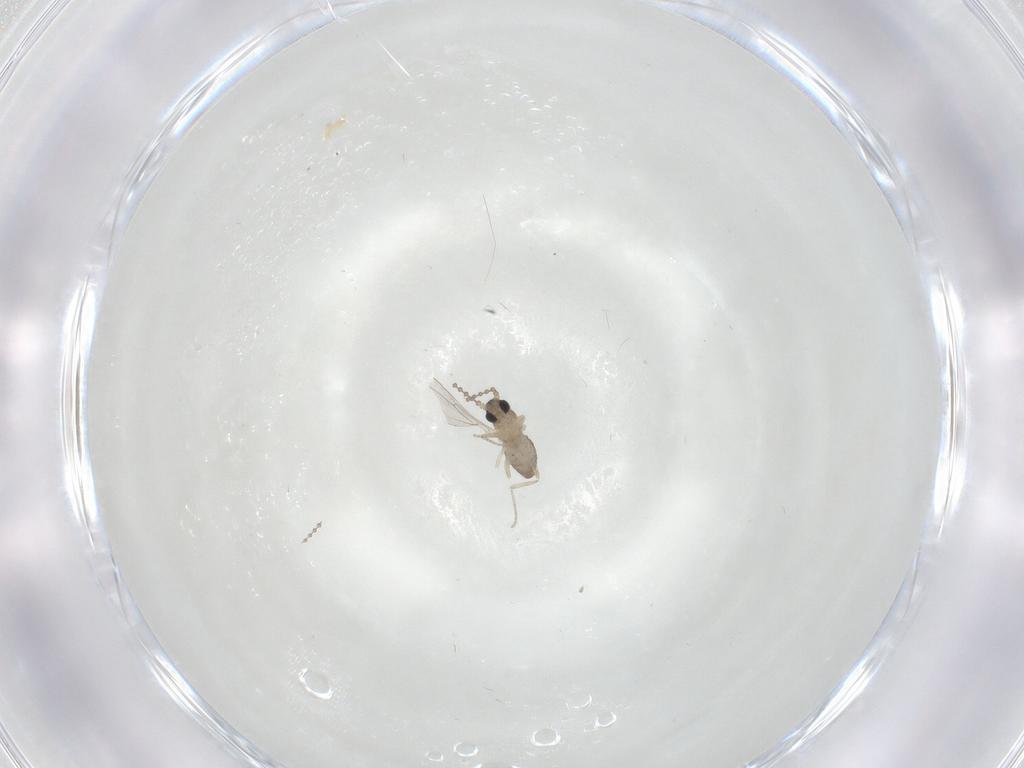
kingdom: Animalia
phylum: Arthropoda
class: Insecta
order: Diptera
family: Cecidomyiidae
